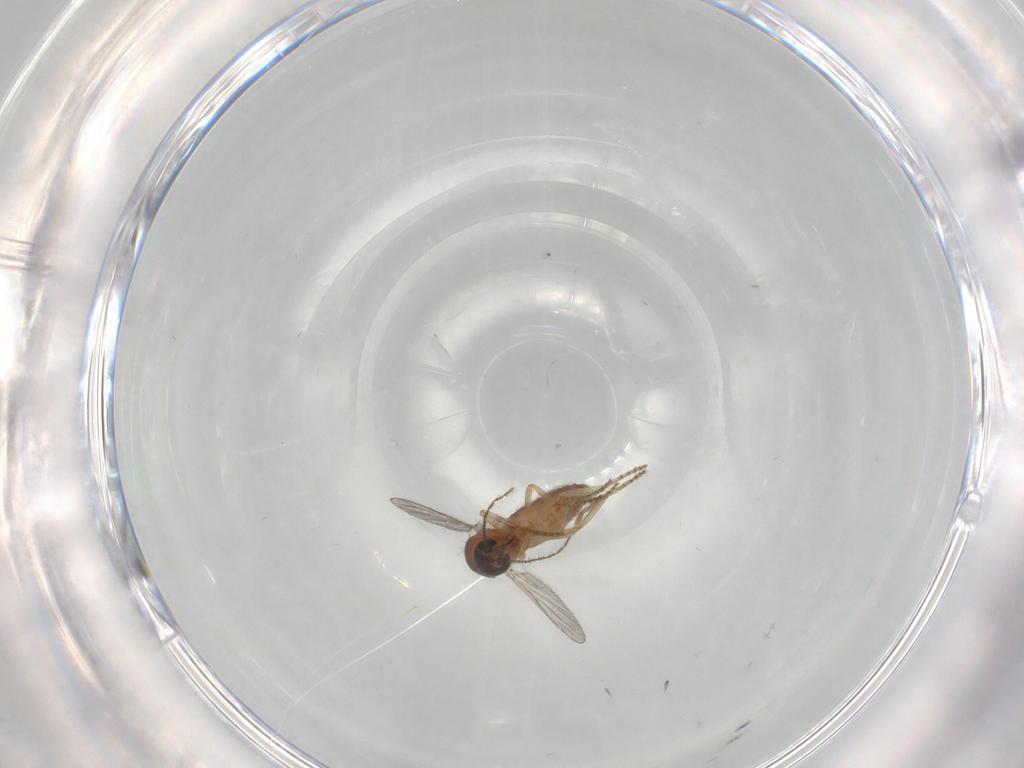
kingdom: Animalia
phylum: Arthropoda
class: Insecta
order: Diptera
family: Ceratopogonidae
